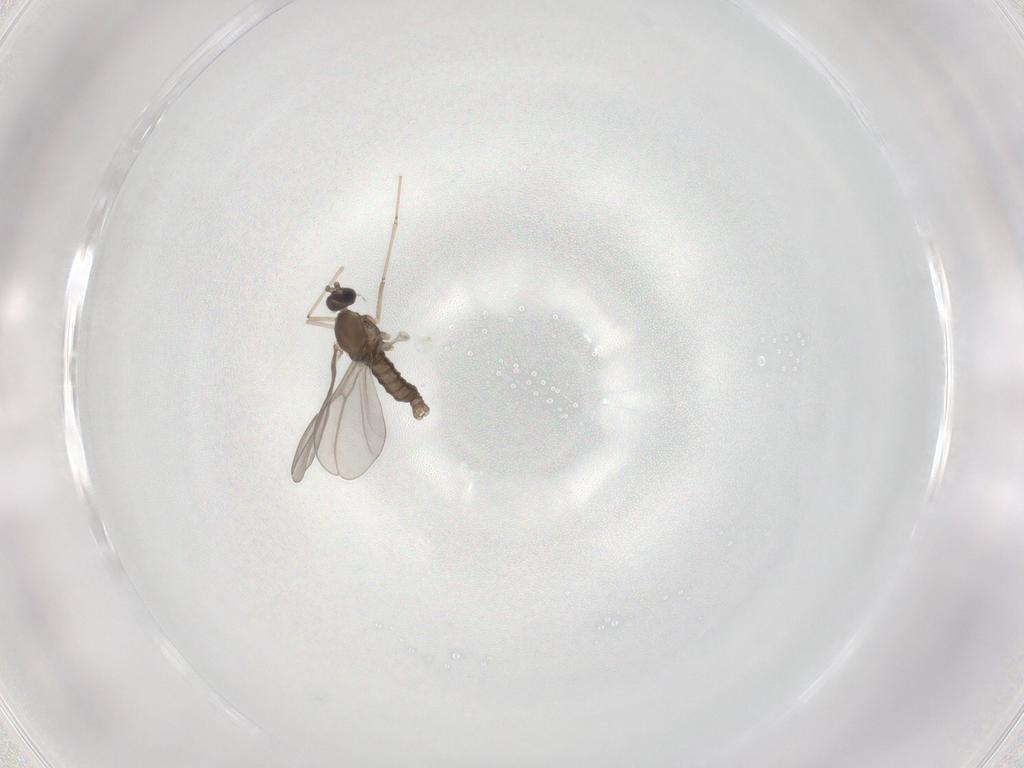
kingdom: Animalia
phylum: Arthropoda
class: Insecta
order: Diptera
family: Cecidomyiidae
